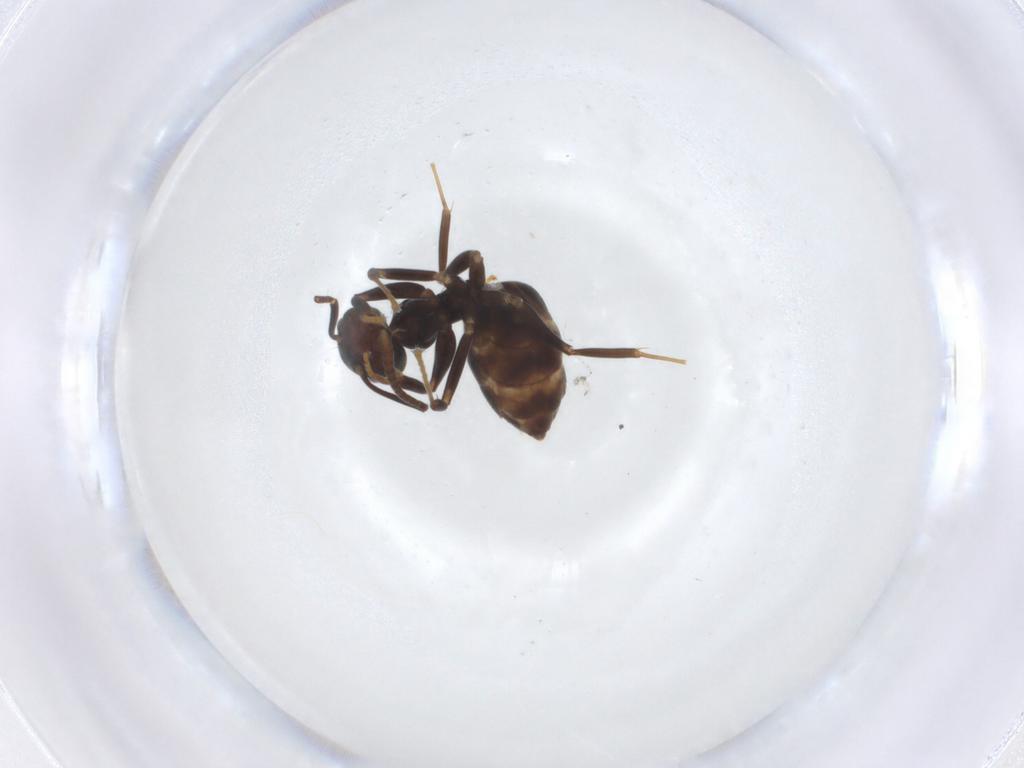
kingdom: Animalia
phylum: Arthropoda
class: Insecta
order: Hymenoptera
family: Formicidae
